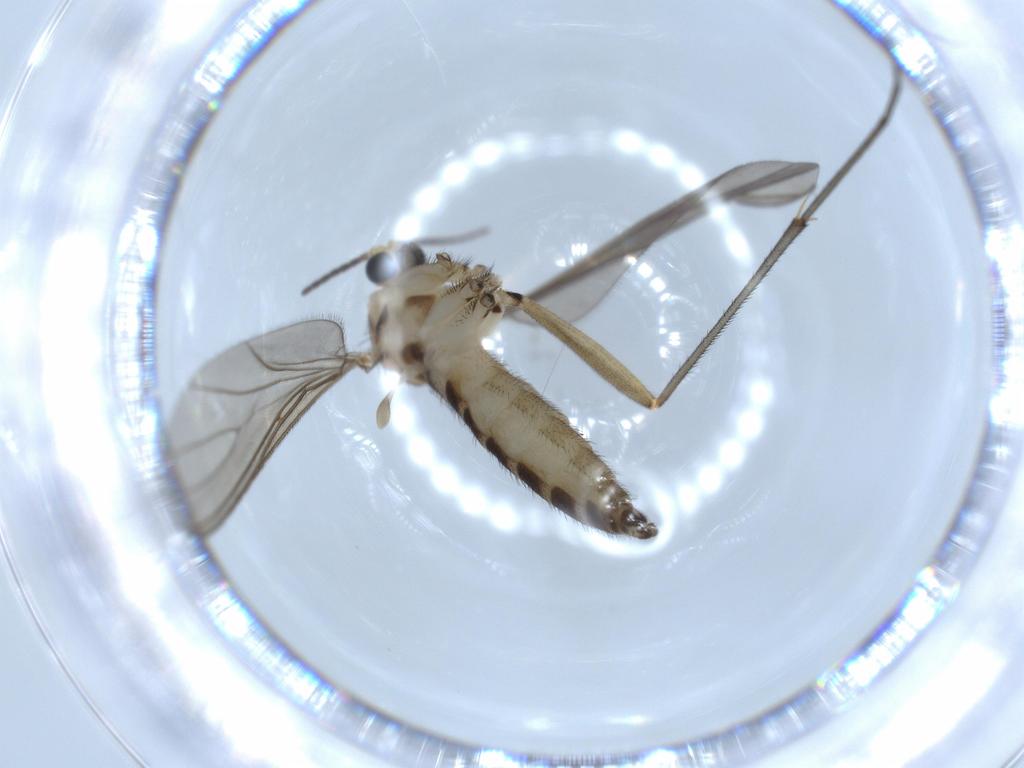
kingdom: Animalia
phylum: Arthropoda
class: Insecta
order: Diptera
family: Sciaridae
